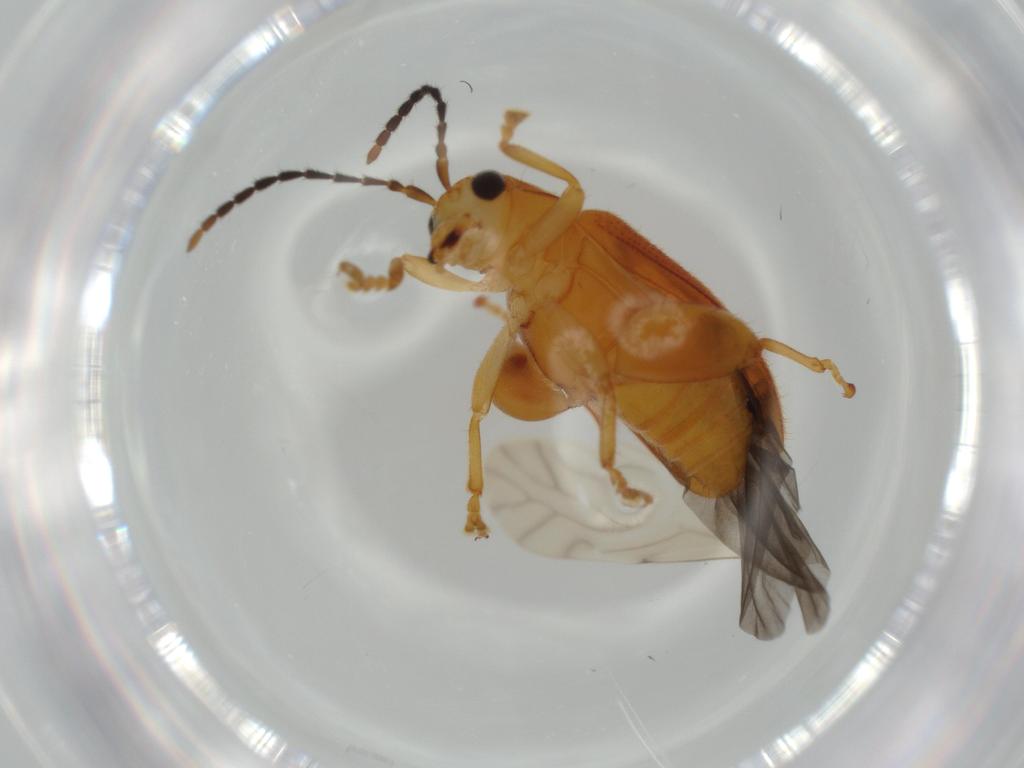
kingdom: Animalia
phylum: Arthropoda
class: Insecta
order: Coleoptera
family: Chrysomelidae
